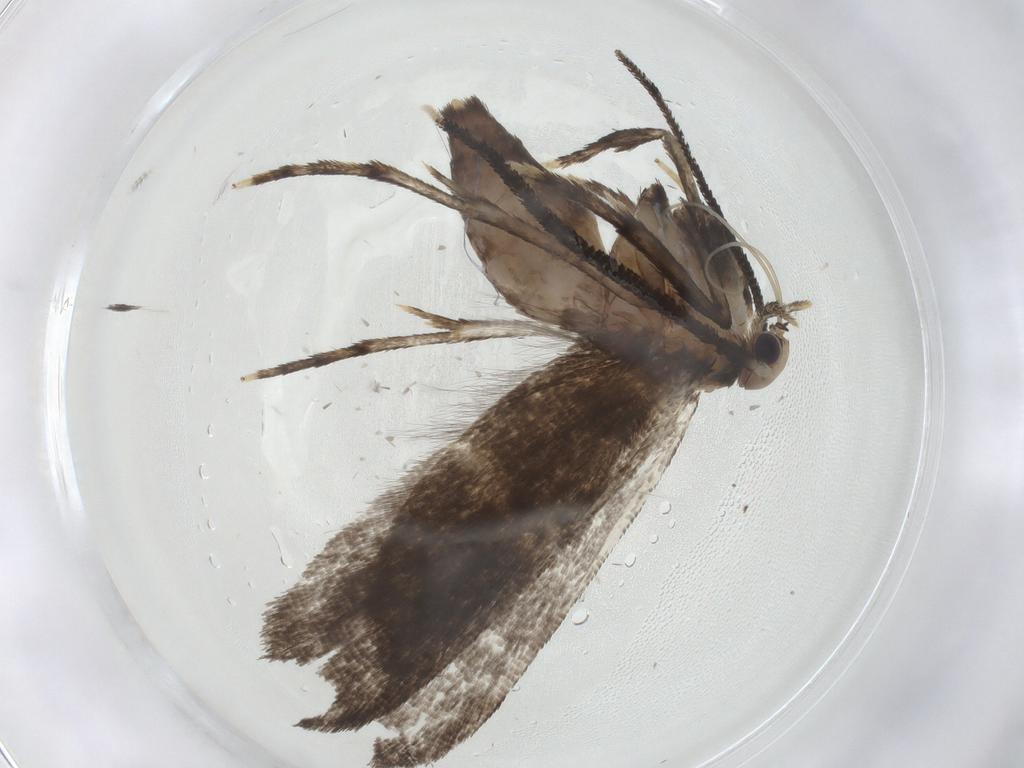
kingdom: Animalia
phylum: Arthropoda
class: Insecta
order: Lepidoptera
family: Choreutidae
